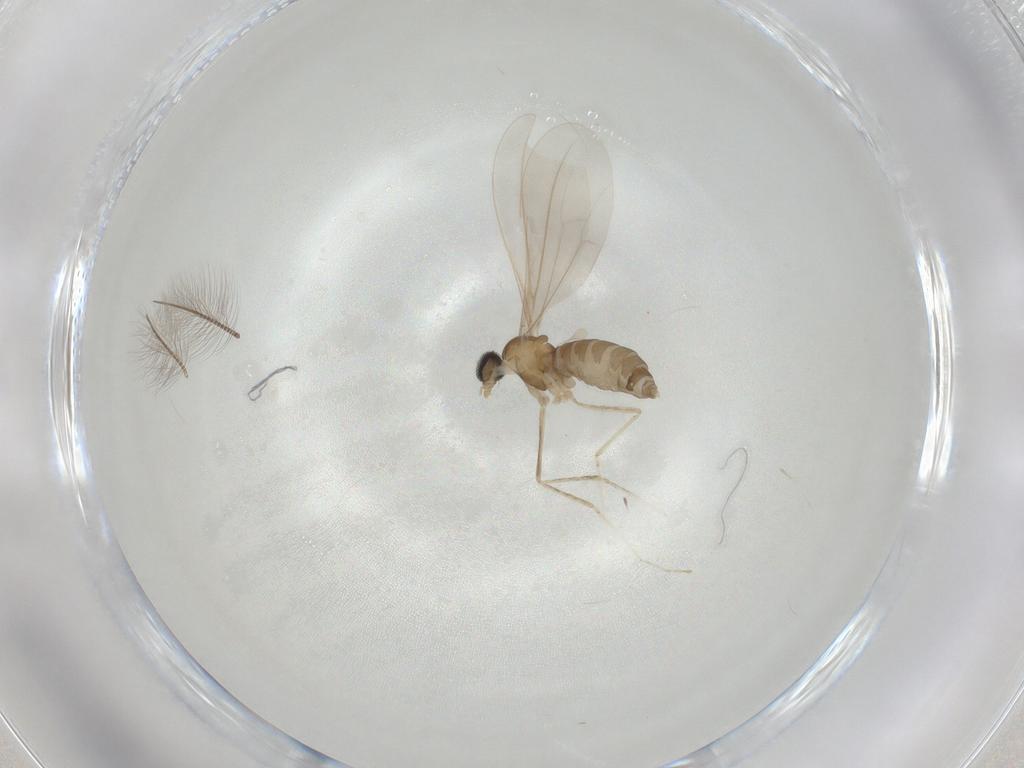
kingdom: Animalia
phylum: Arthropoda
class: Insecta
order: Diptera
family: Cecidomyiidae
